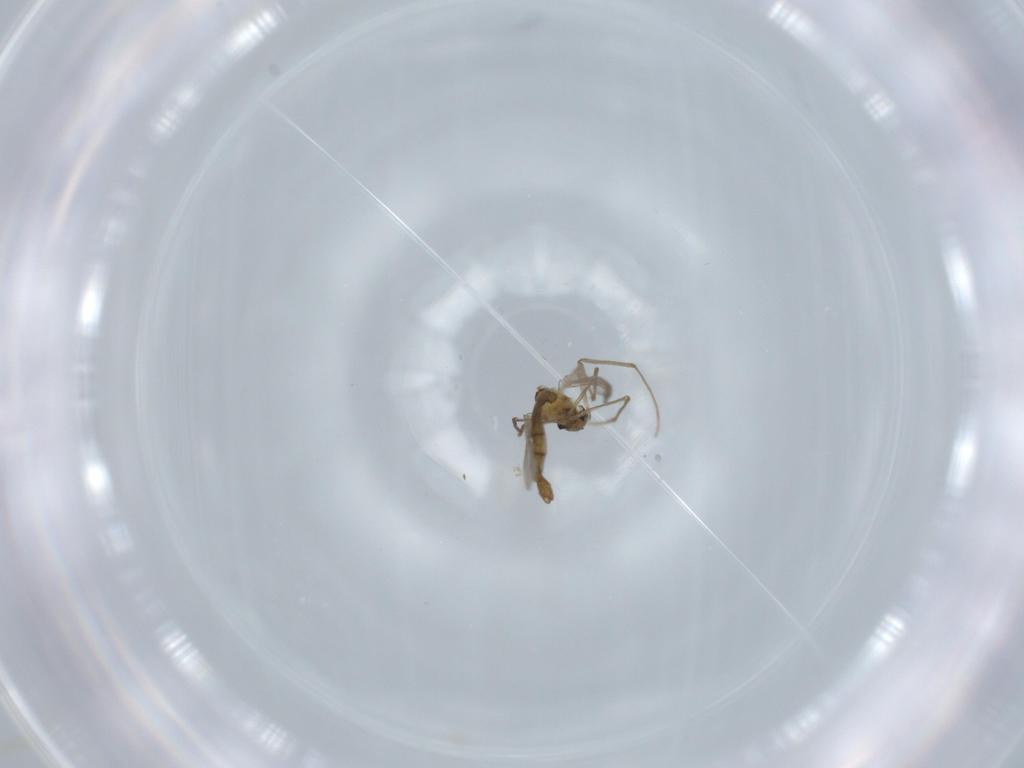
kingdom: Animalia
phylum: Arthropoda
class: Insecta
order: Diptera
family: Chironomidae
